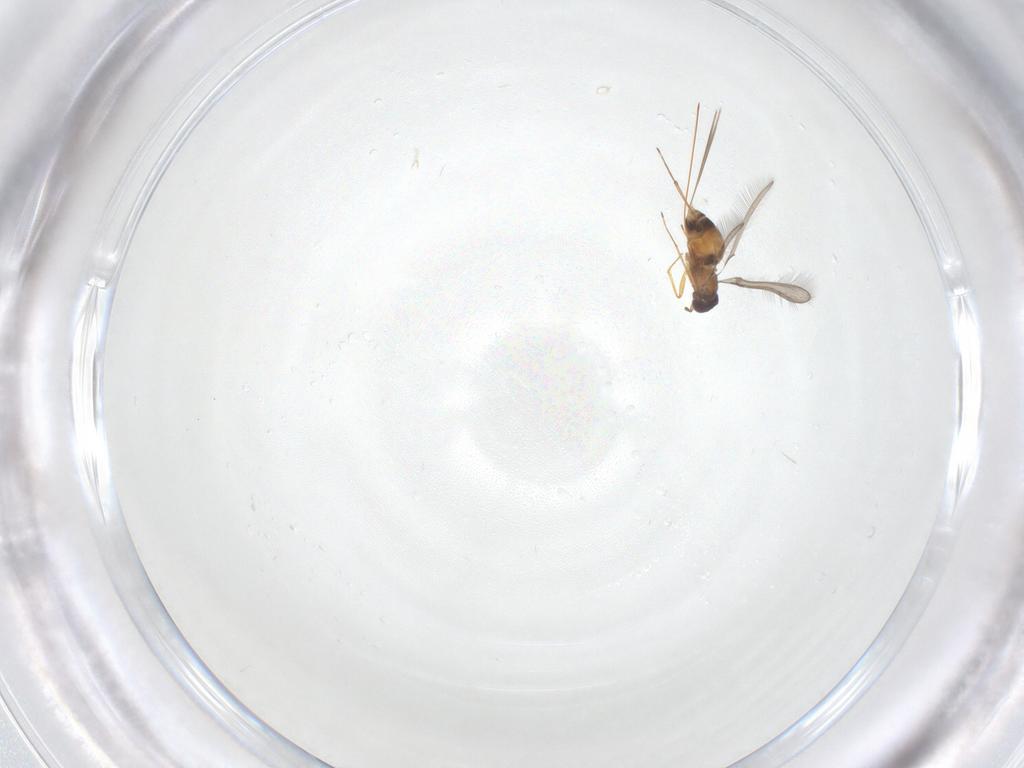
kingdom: Animalia
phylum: Arthropoda
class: Insecta
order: Hymenoptera
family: Mymaridae
